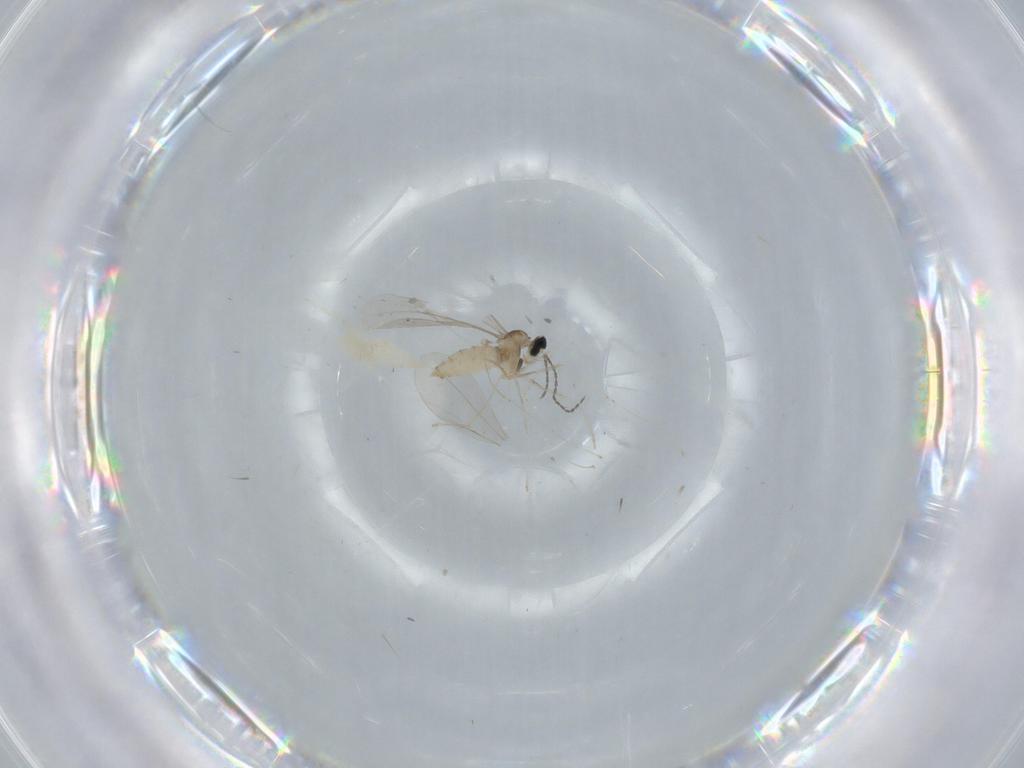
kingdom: Animalia
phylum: Arthropoda
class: Insecta
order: Diptera
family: Cecidomyiidae
